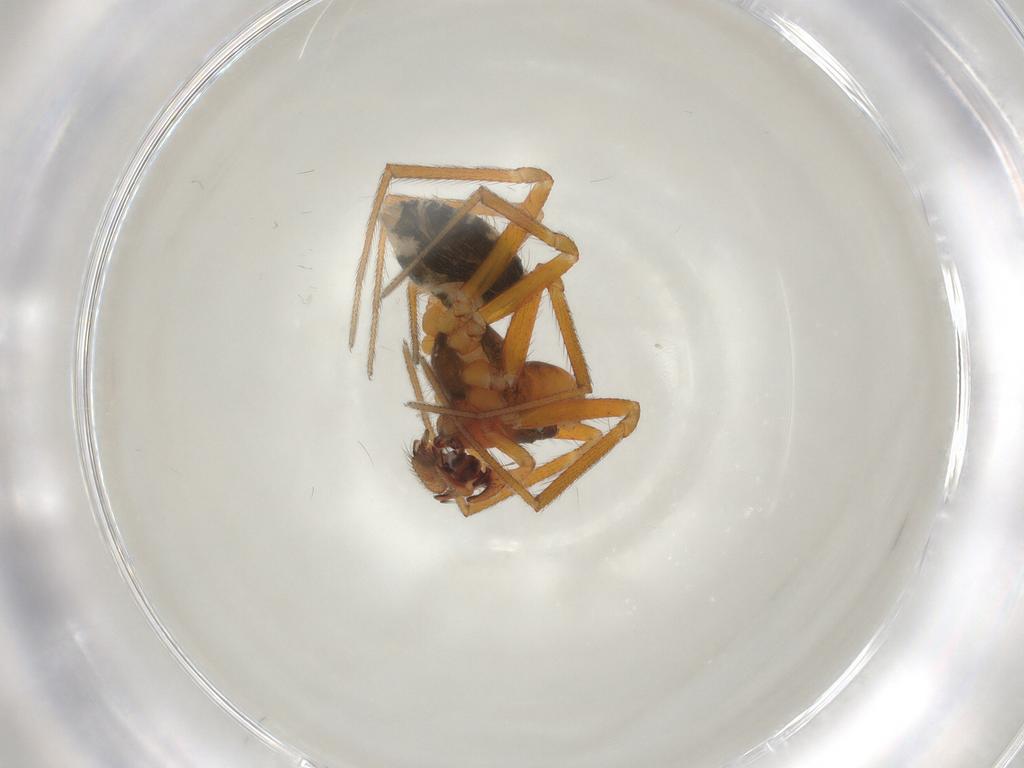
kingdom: Animalia
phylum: Arthropoda
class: Arachnida
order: Araneae
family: Linyphiidae
